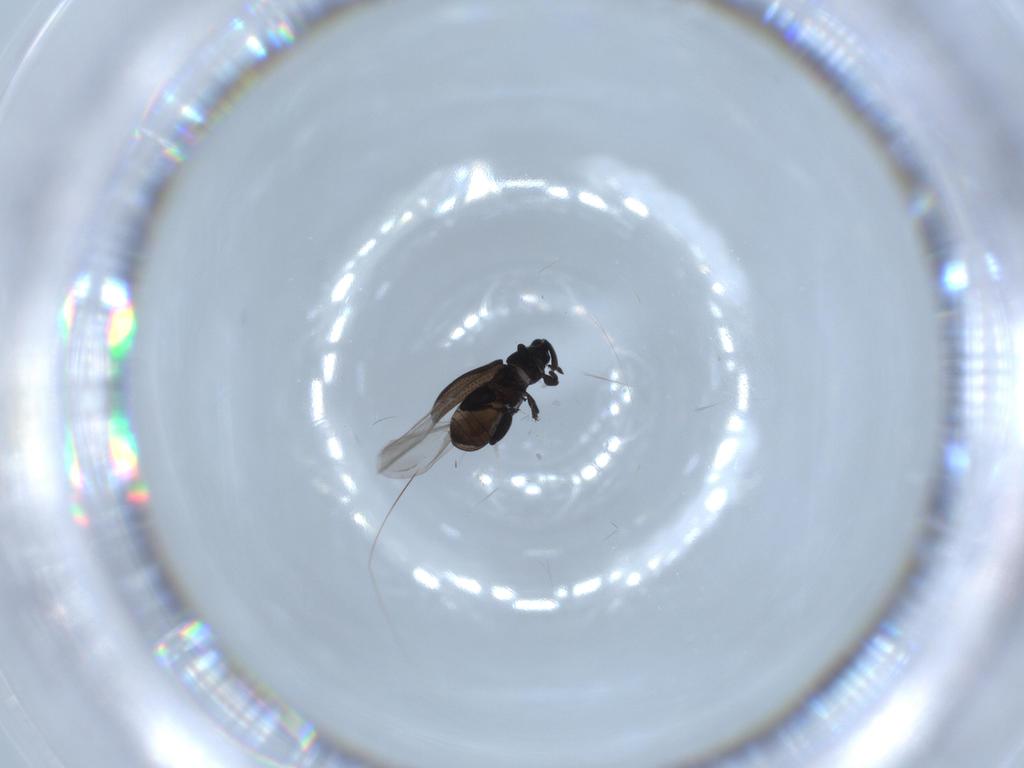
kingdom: Animalia
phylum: Arthropoda
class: Insecta
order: Coleoptera
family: Curculionidae
